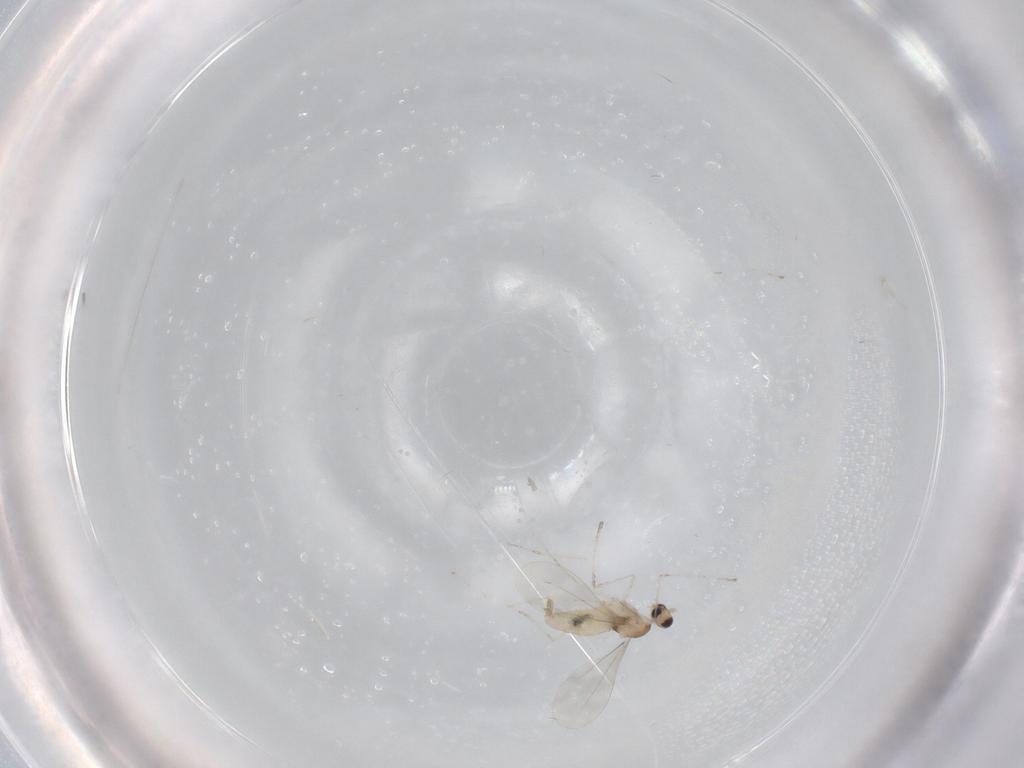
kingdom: Animalia
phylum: Arthropoda
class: Insecta
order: Diptera
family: Cecidomyiidae
